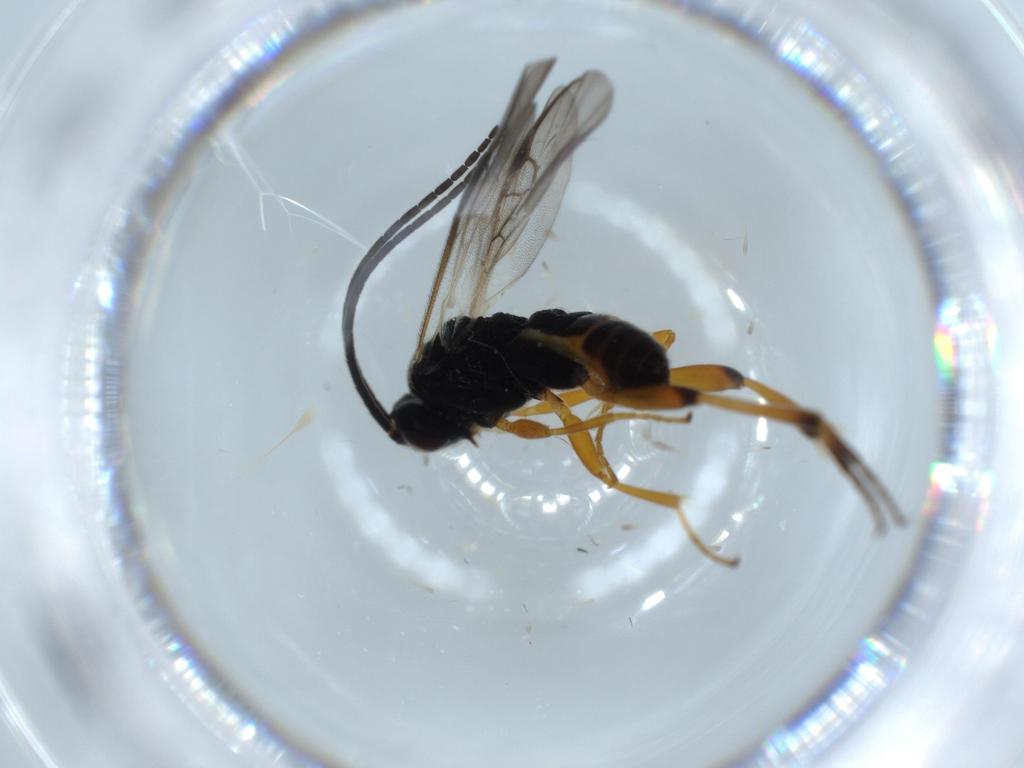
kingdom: Animalia
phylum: Arthropoda
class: Insecta
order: Hymenoptera
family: Braconidae
